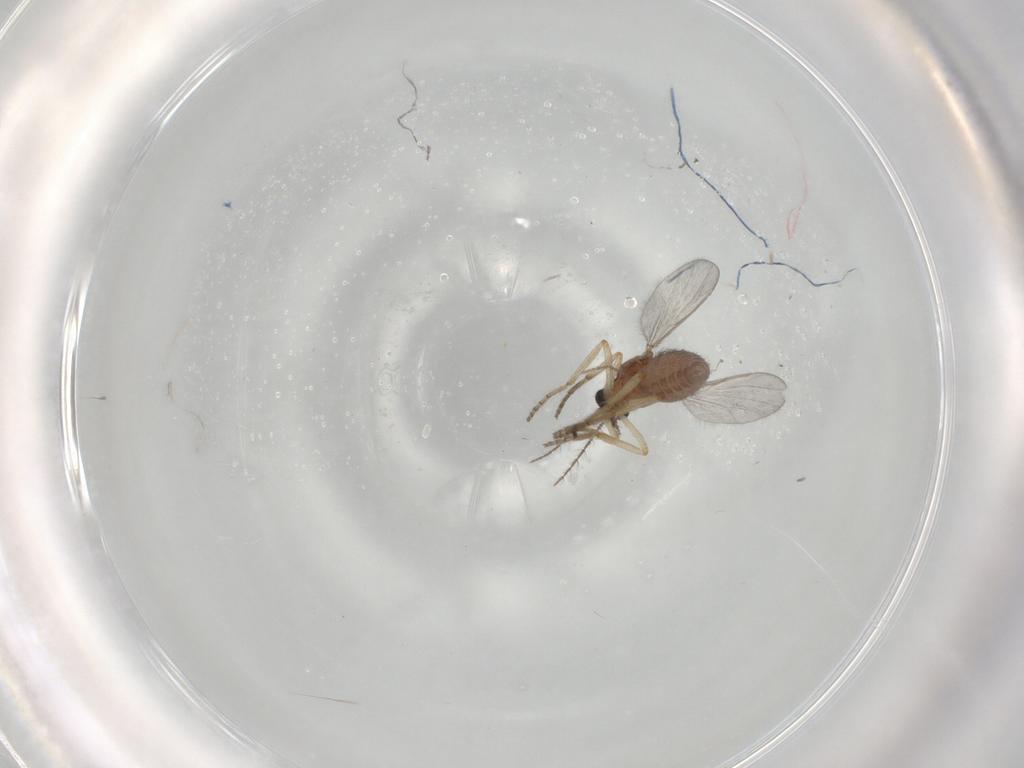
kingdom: Animalia
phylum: Arthropoda
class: Insecta
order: Diptera
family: Ceratopogonidae
